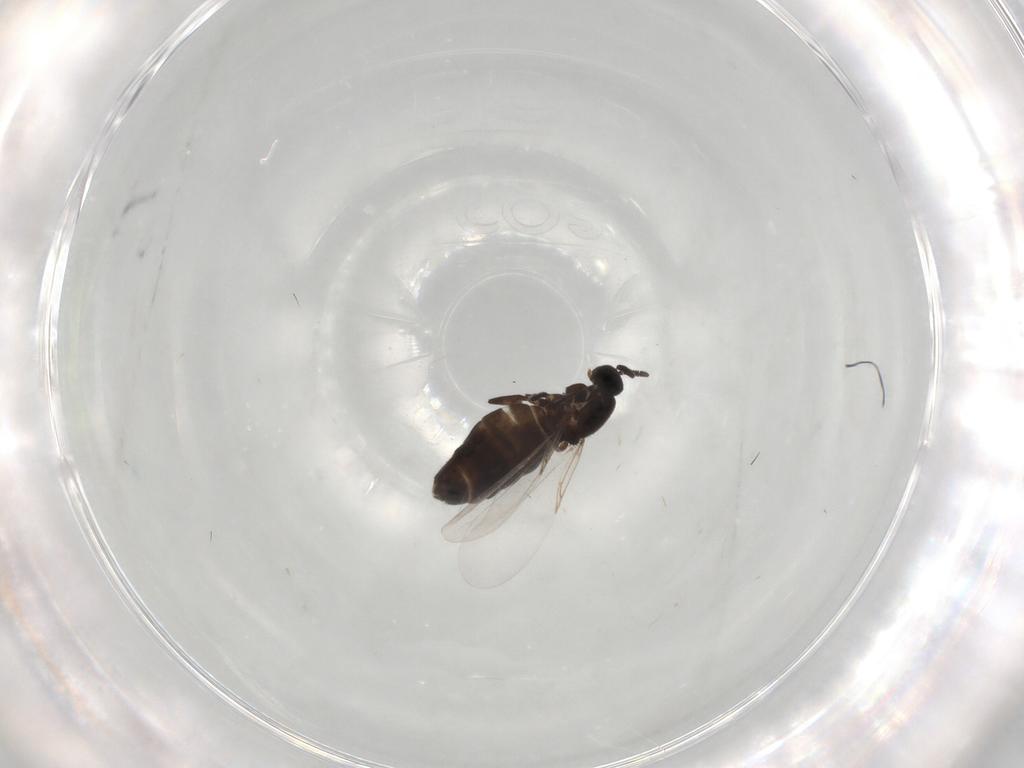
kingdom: Animalia
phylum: Arthropoda
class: Insecta
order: Diptera
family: Scatopsidae
